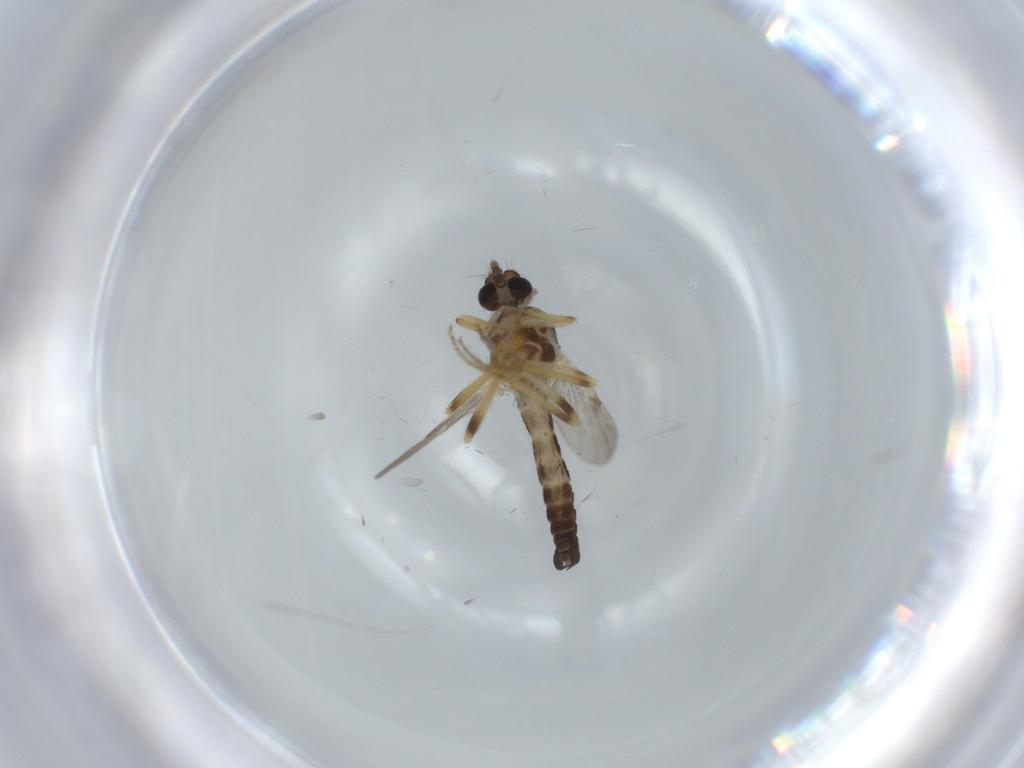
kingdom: Animalia
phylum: Arthropoda
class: Insecta
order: Diptera
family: Ceratopogonidae
